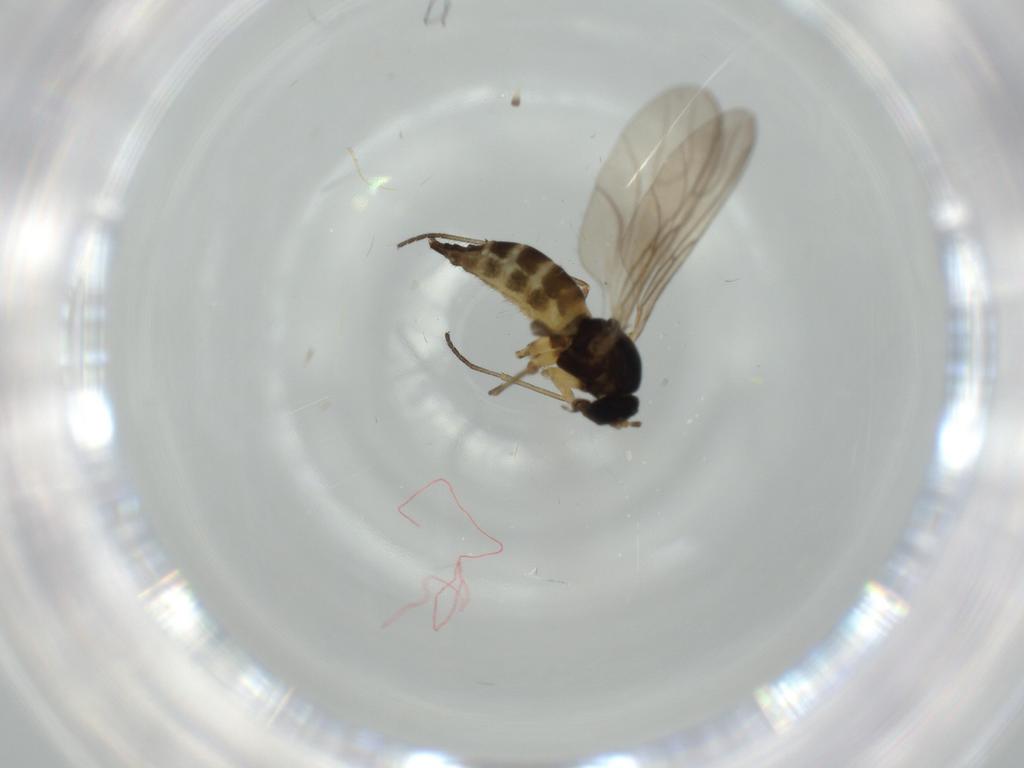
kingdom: Animalia
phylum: Arthropoda
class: Insecta
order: Diptera
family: Sciaridae
